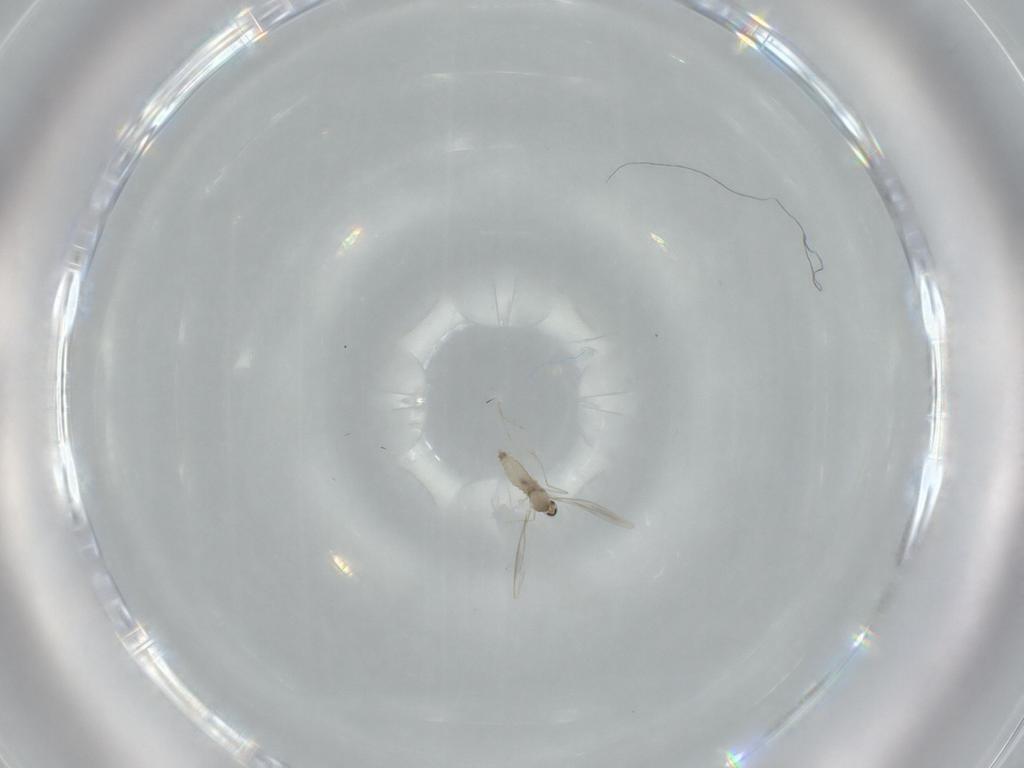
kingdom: Animalia
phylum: Arthropoda
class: Insecta
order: Diptera
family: Cecidomyiidae
